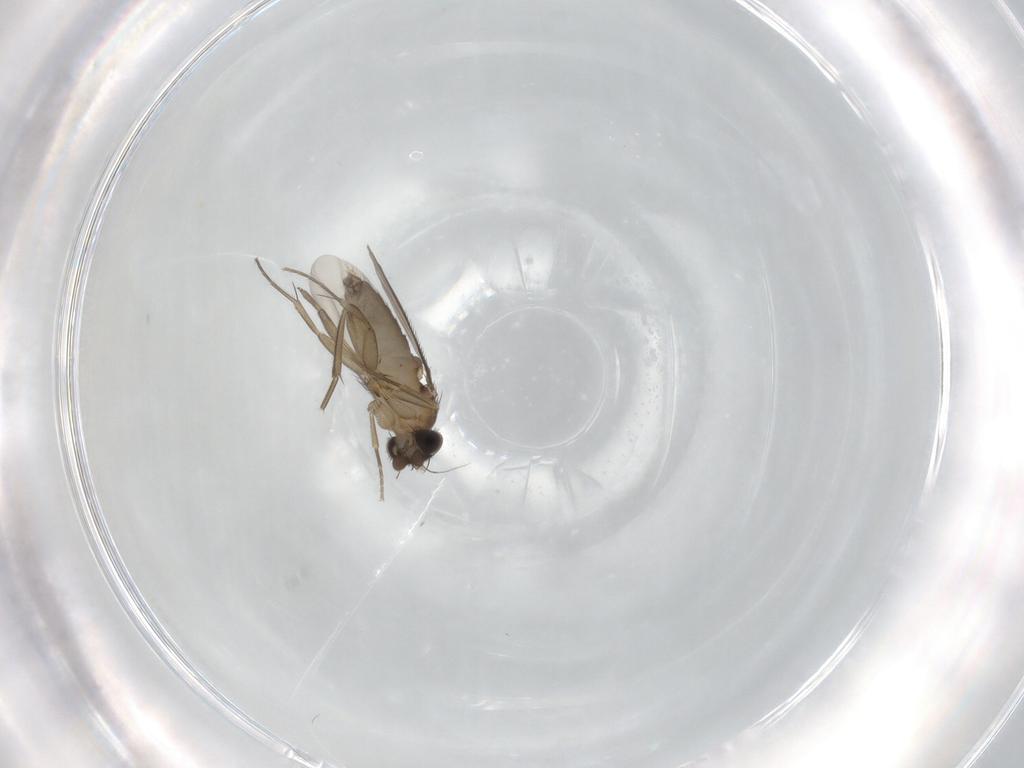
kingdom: Animalia
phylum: Arthropoda
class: Insecta
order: Diptera
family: Phoridae
